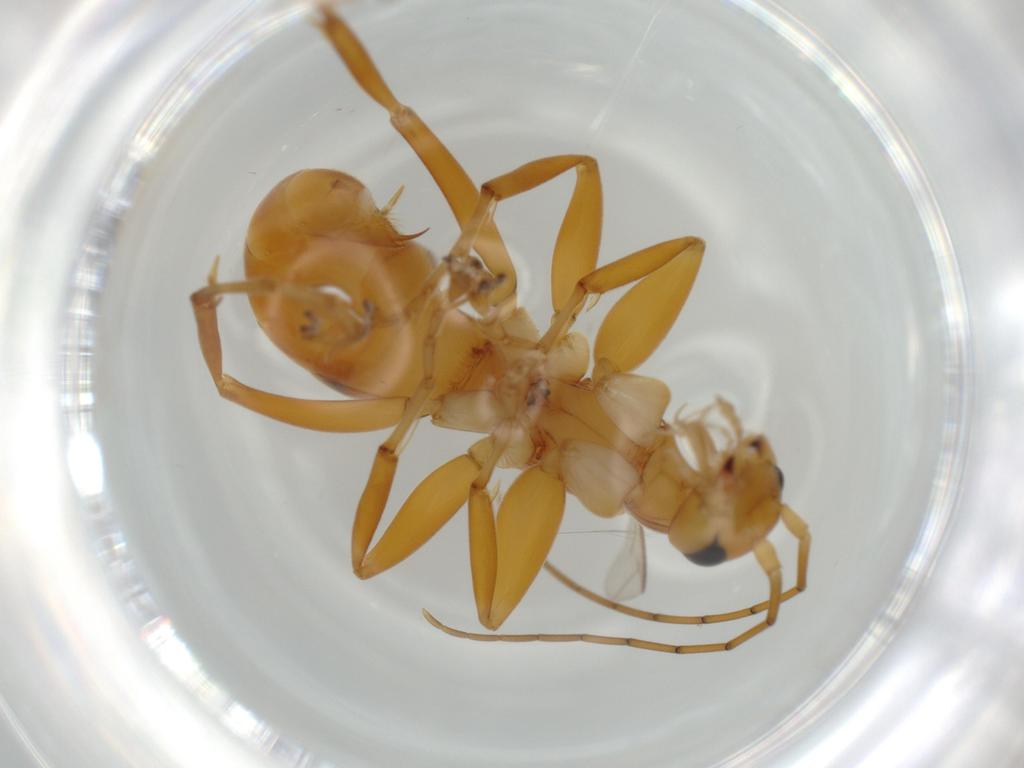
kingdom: Animalia
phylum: Arthropoda
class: Insecta
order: Hymenoptera
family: Rhopalosomatidae
